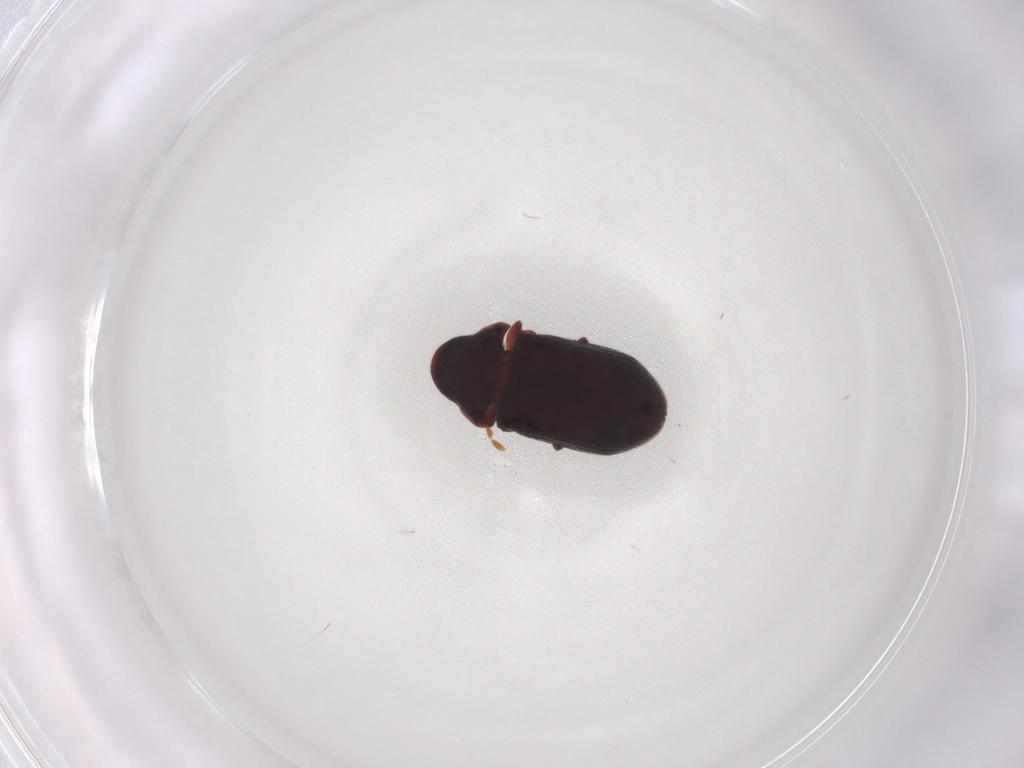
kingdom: Animalia
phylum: Arthropoda
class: Insecta
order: Coleoptera
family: Ptinidae
